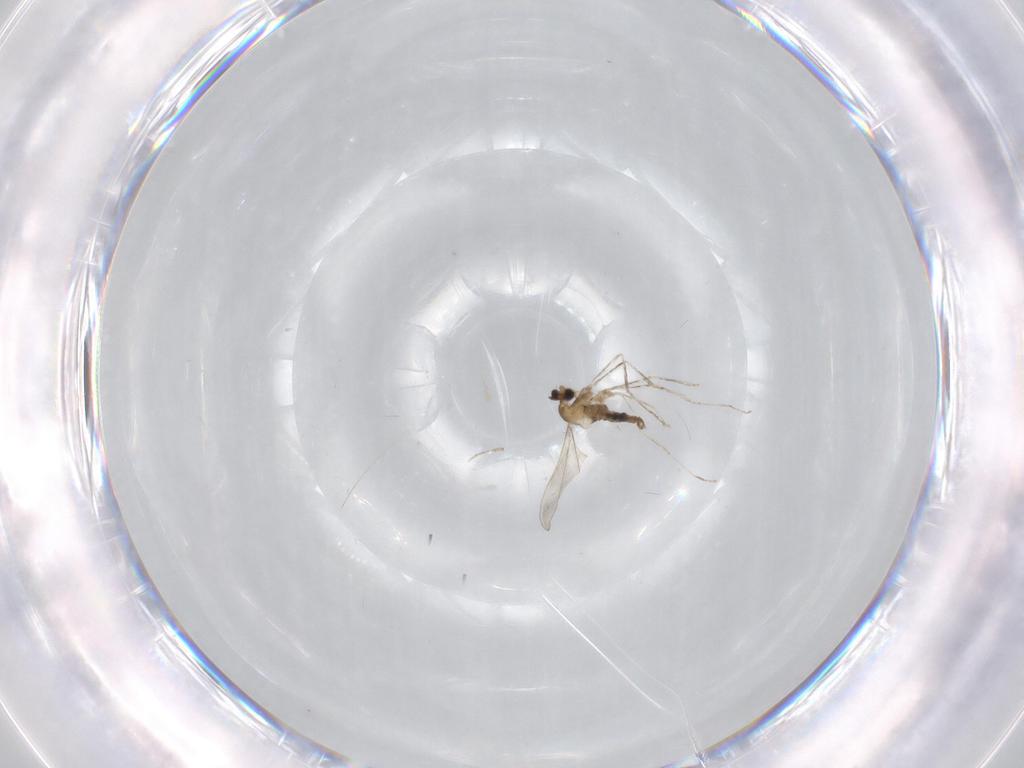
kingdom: Animalia
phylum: Arthropoda
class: Insecta
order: Diptera
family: Cecidomyiidae
